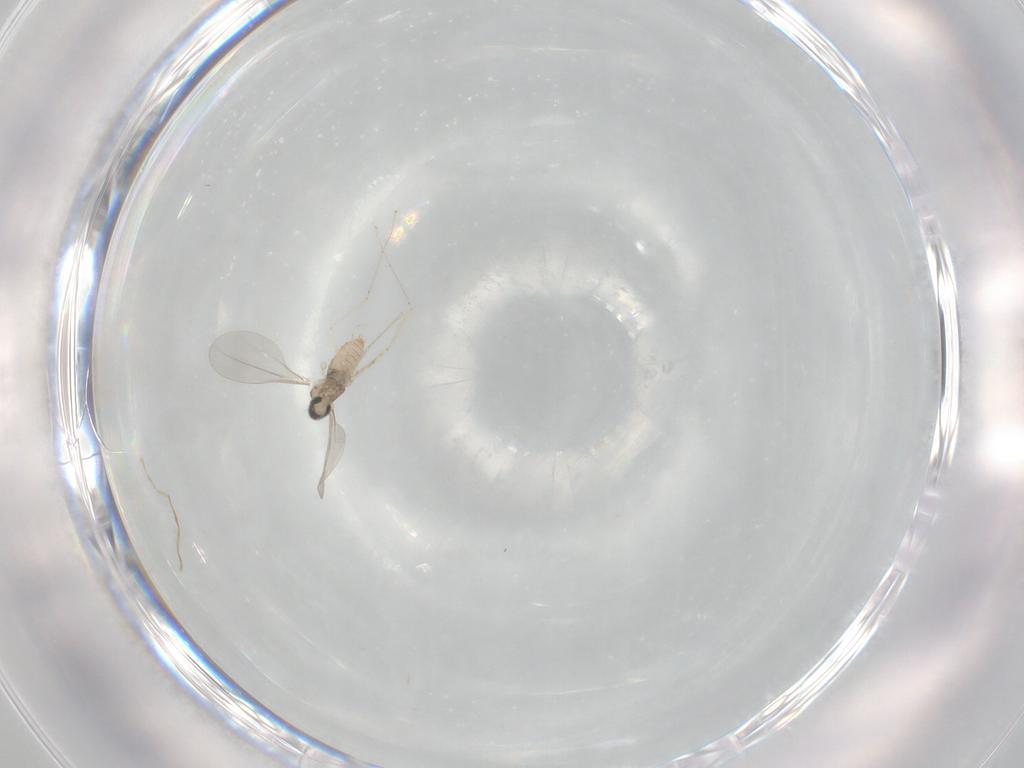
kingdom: Animalia
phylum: Arthropoda
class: Insecta
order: Diptera
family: Cecidomyiidae
